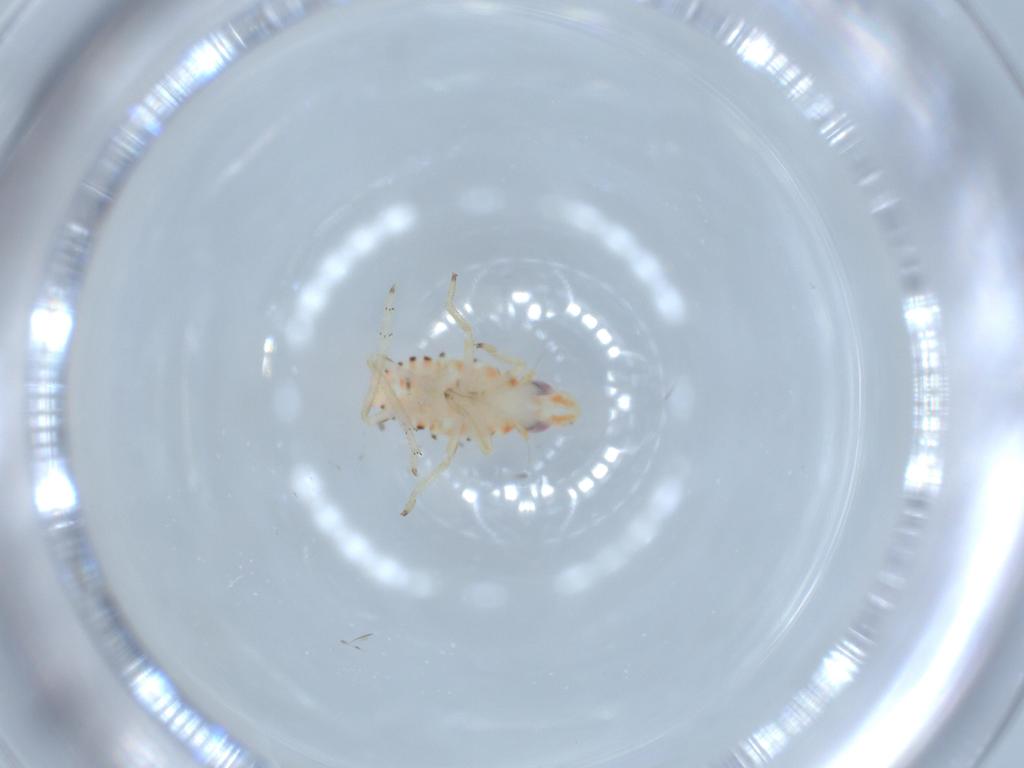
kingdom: Animalia
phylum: Arthropoda
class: Insecta
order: Hemiptera
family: Tropiduchidae
